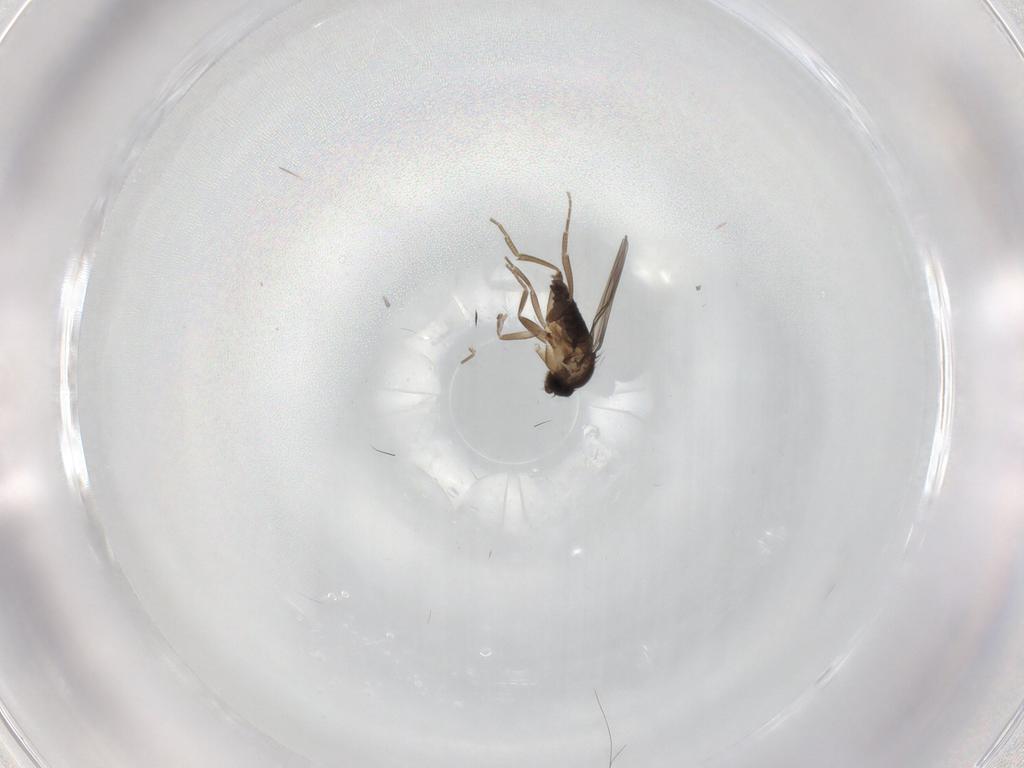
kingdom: Animalia
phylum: Arthropoda
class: Insecta
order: Diptera
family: Phoridae
